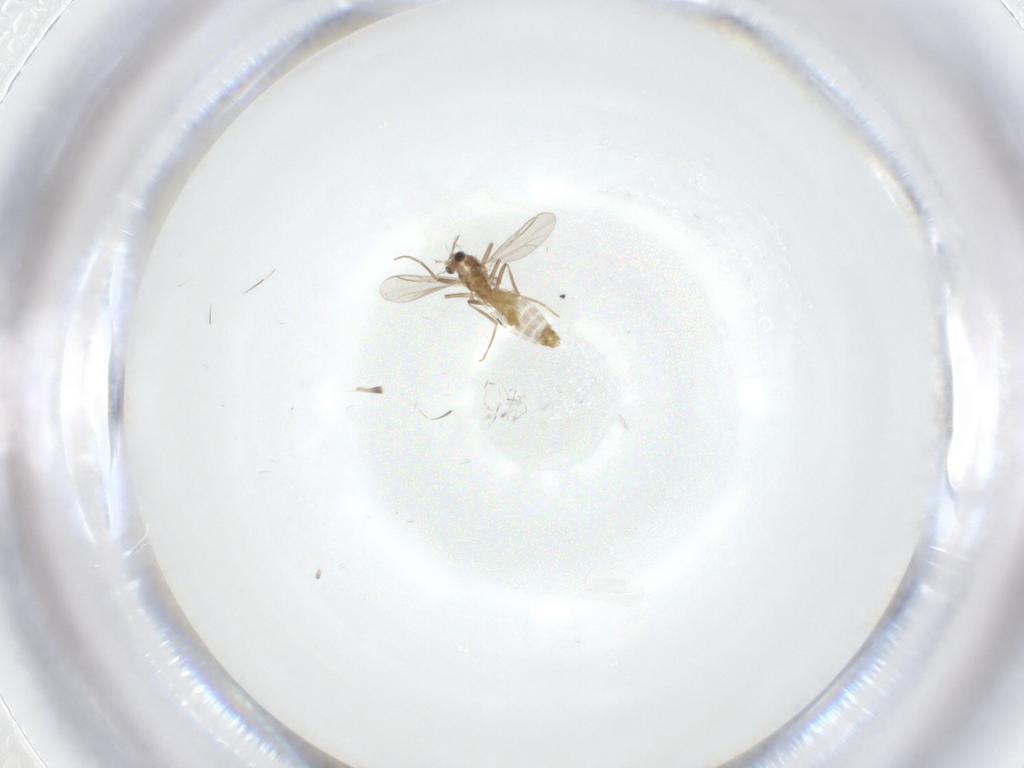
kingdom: Animalia
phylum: Arthropoda
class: Insecta
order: Diptera
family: Chironomidae
